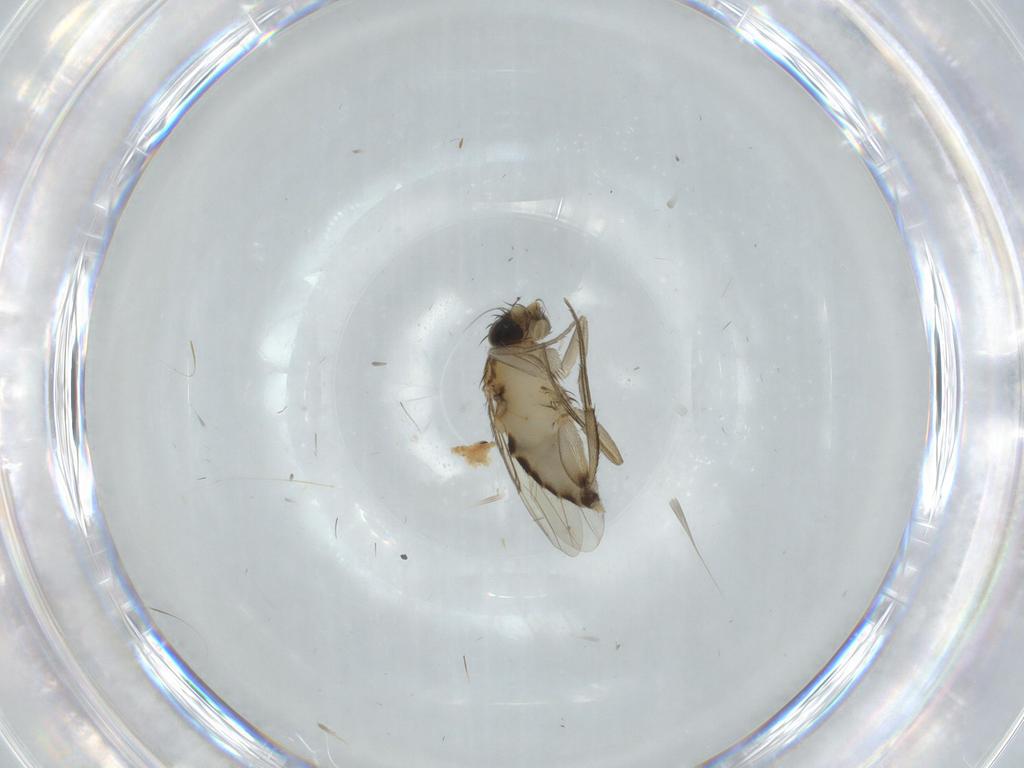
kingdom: Animalia
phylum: Arthropoda
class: Insecta
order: Diptera
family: Phoridae
